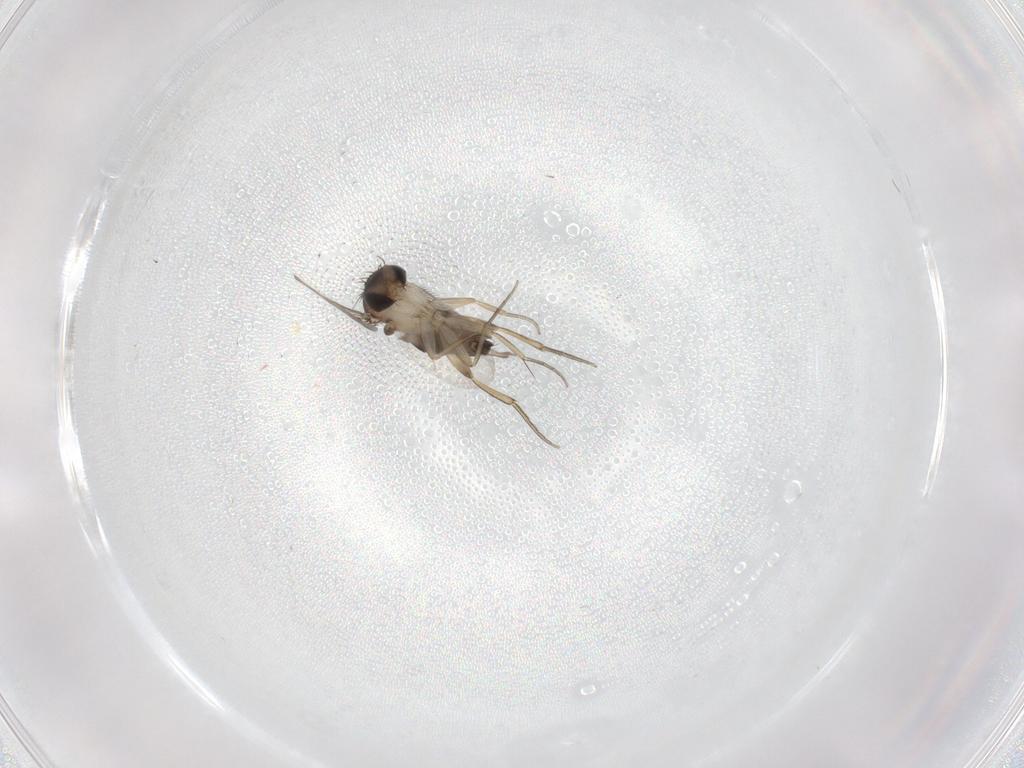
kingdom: Animalia
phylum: Arthropoda
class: Insecta
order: Diptera
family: Phoridae
